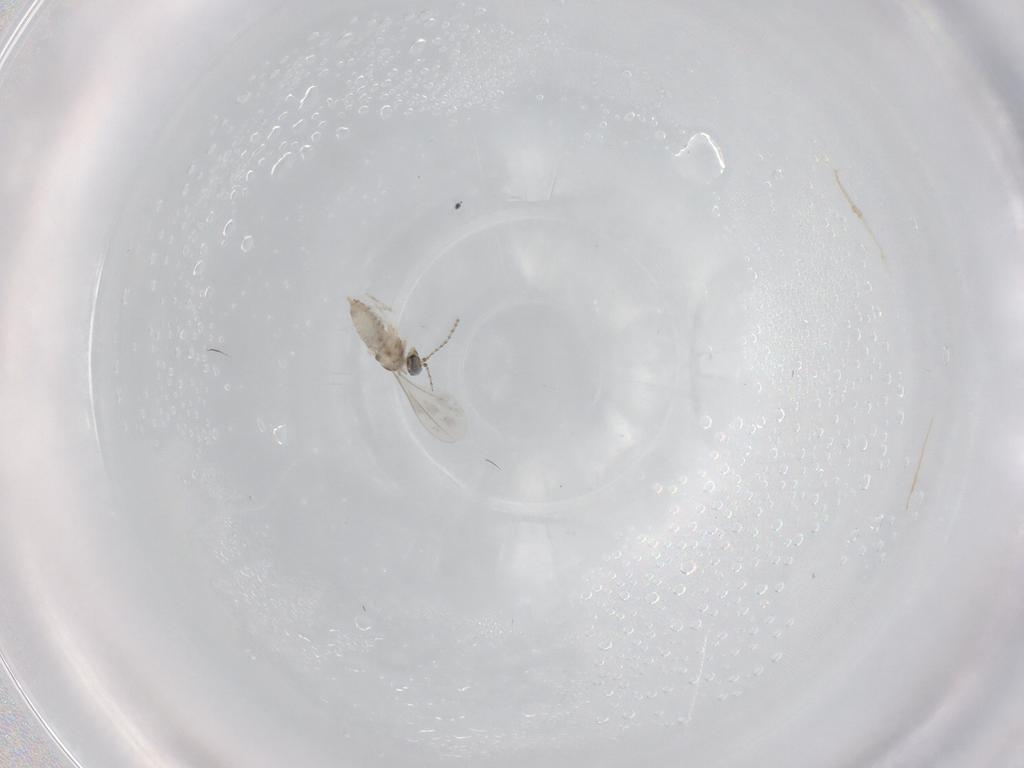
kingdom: Animalia
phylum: Arthropoda
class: Insecta
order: Diptera
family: Cecidomyiidae
